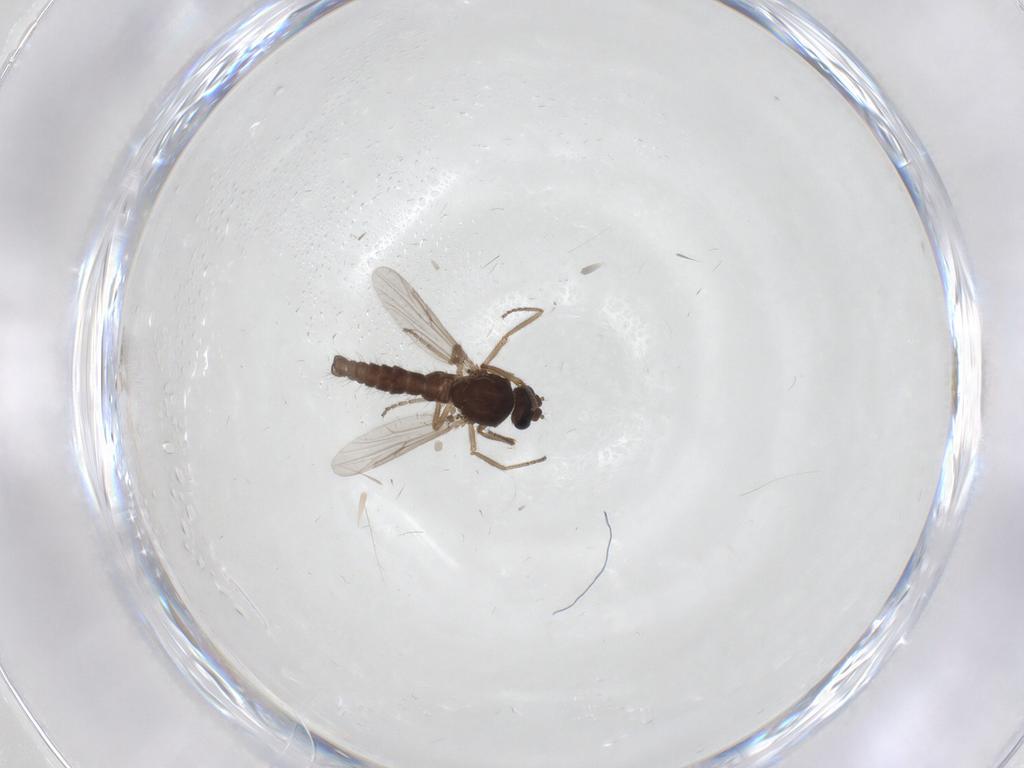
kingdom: Animalia
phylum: Arthropoda
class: Insecta
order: Diptera
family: Ceratopogonidae
